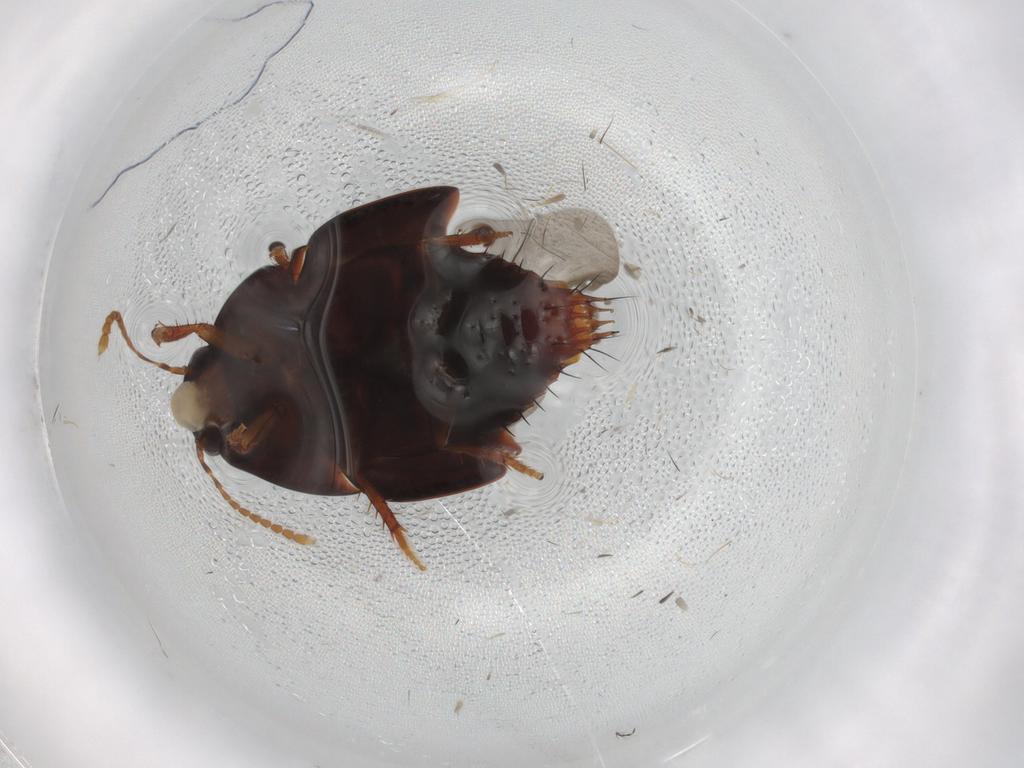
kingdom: Animalia
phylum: Arthropoda
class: Insecta
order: Coleoptera
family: Staphylinidae
